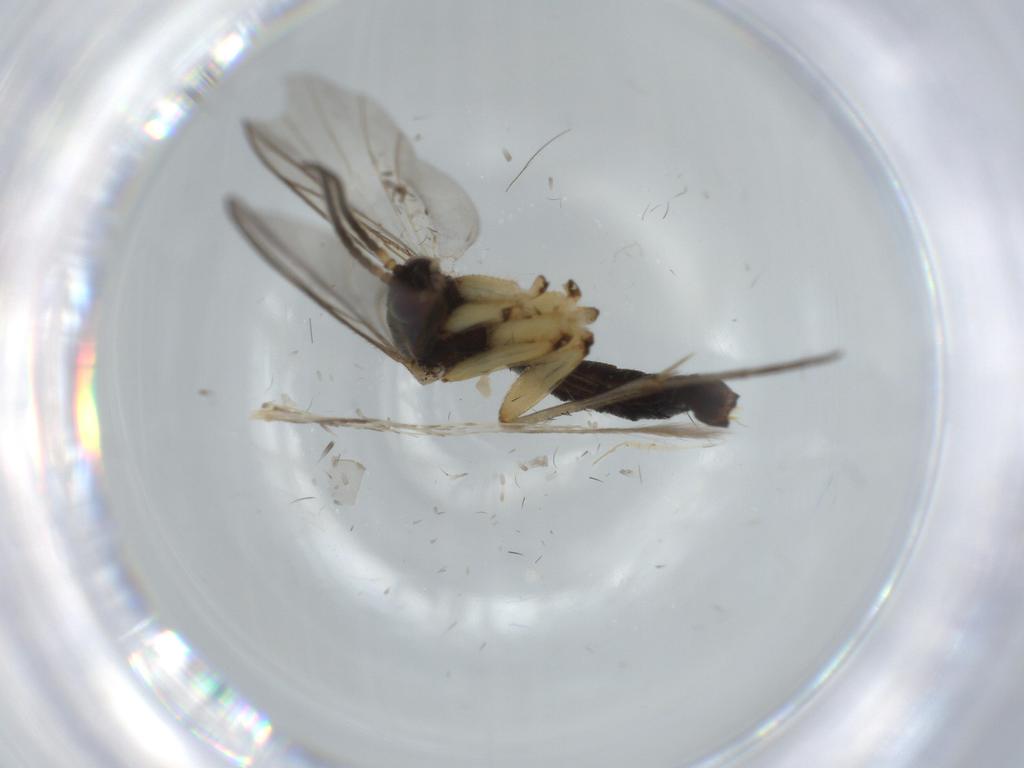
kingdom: Animalia
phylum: Arthropoda
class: Insecta
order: Diptera
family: Mycetophilidae
